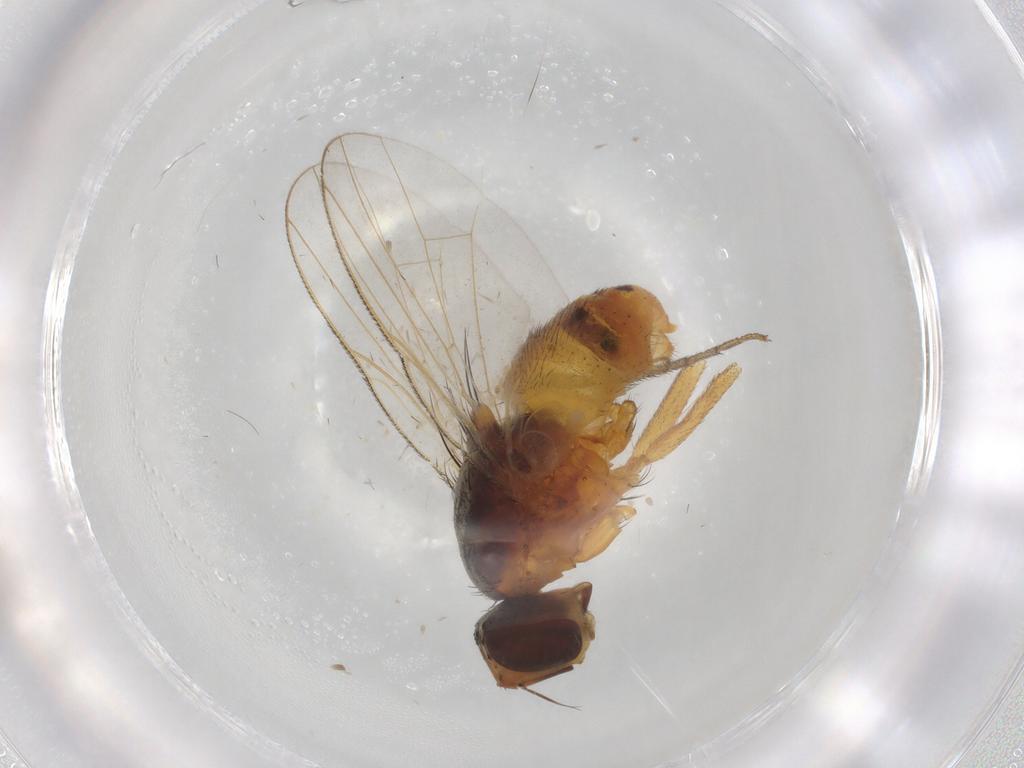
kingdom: Animalia
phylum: Arthropoda
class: Insecta
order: Diptera
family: Muscidae
